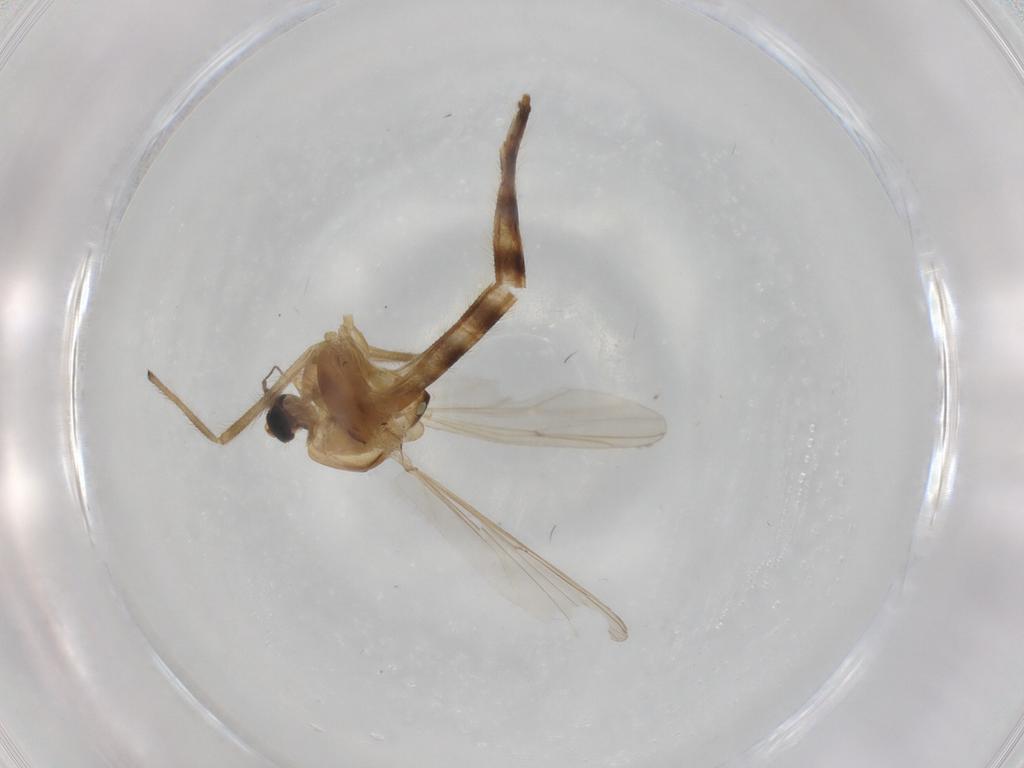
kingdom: Animalia
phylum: Arthropoda
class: Insecta
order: Diptera
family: Chironomidae
